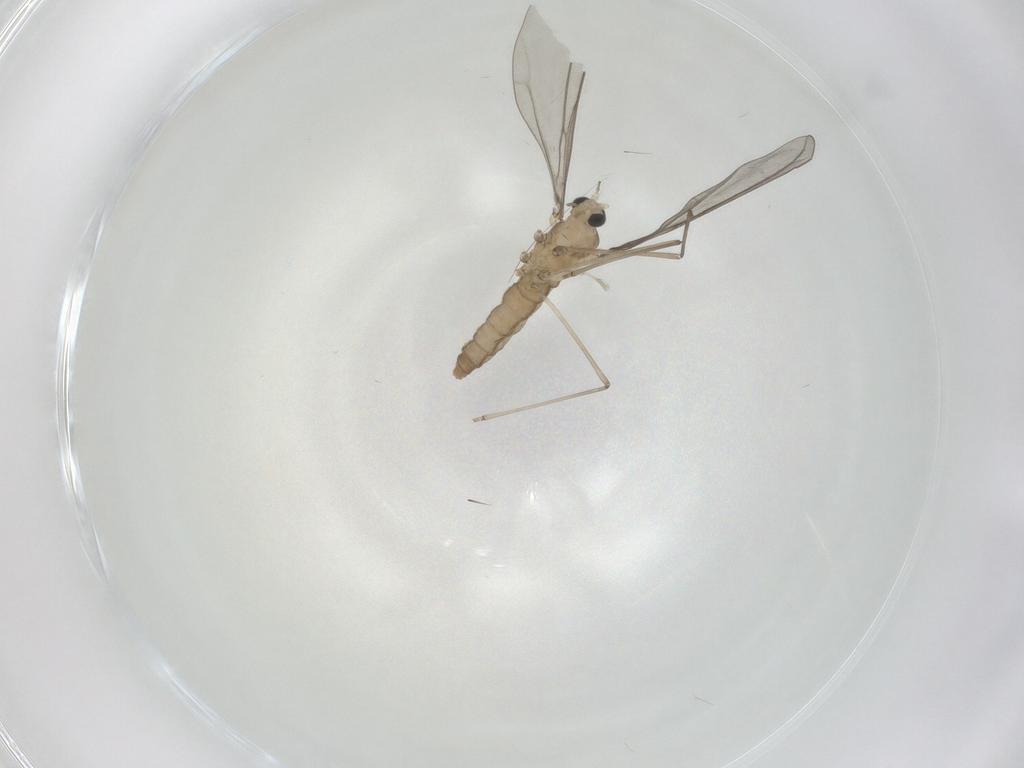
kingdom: Animalia
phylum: Arthropoda
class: Insecta
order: Diptera
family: Cecidomyiidae
